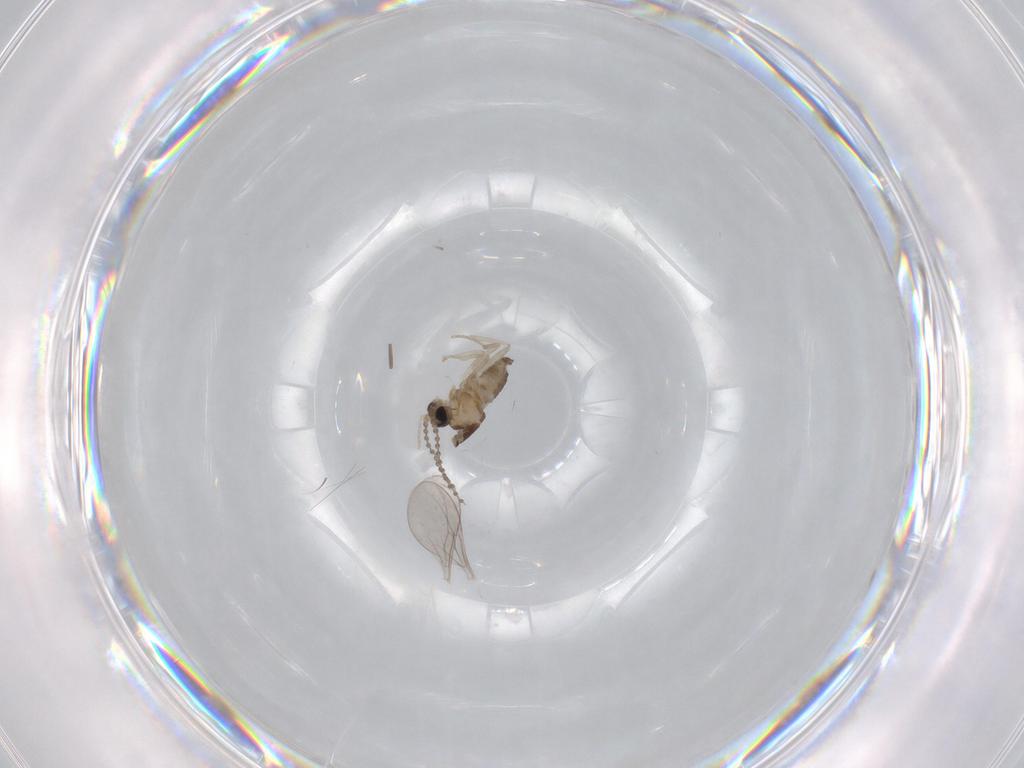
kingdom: Animalia
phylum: Arthropoda
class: Insecta
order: Diptera
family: Cecidomyiidae
